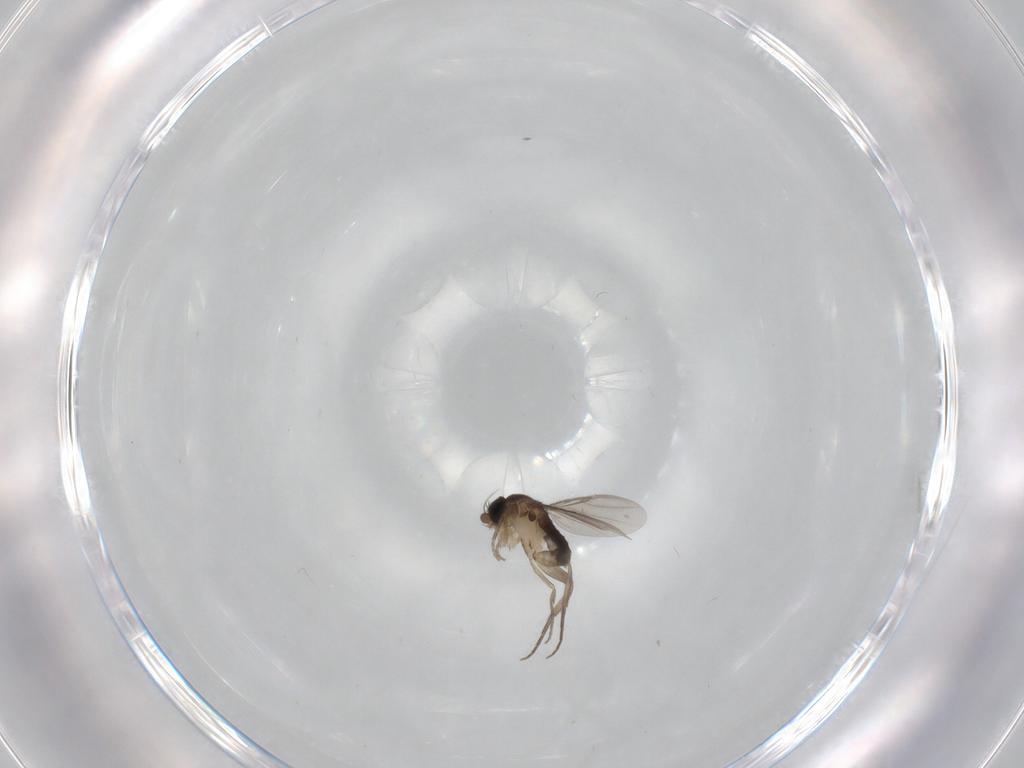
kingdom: Animalia
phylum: Arthropoda
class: Insecta
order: Diptera
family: Phoridae
